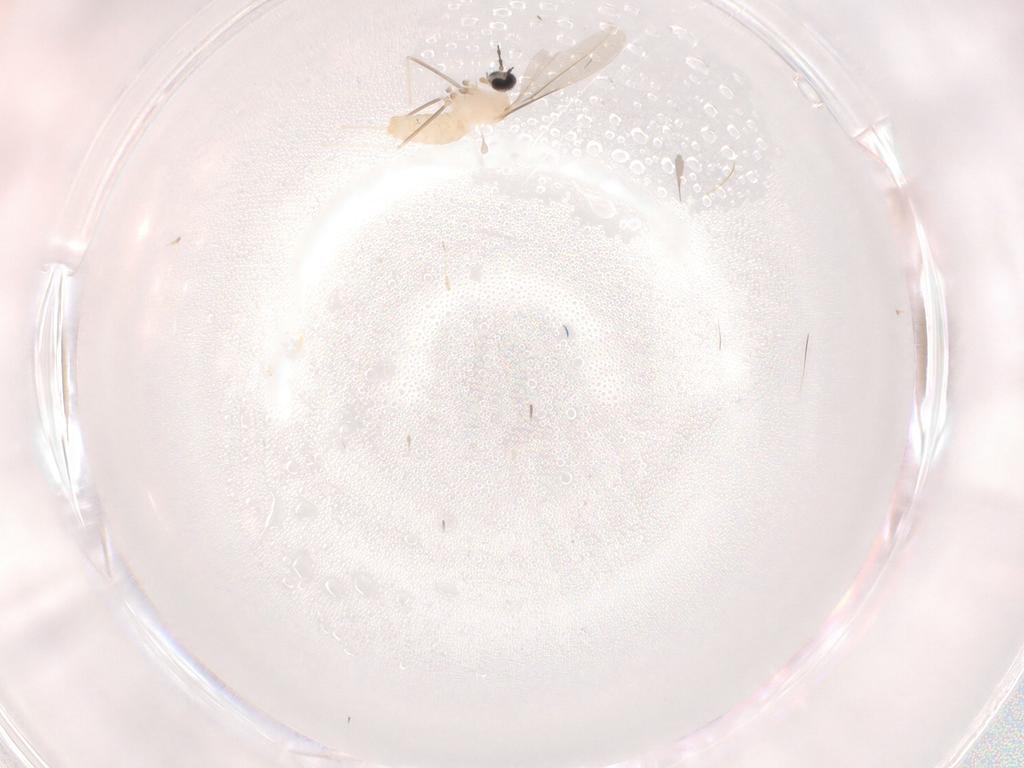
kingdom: Animalia
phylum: Arthropoda
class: Insecta
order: Diptera
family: Cecidomyiidae
